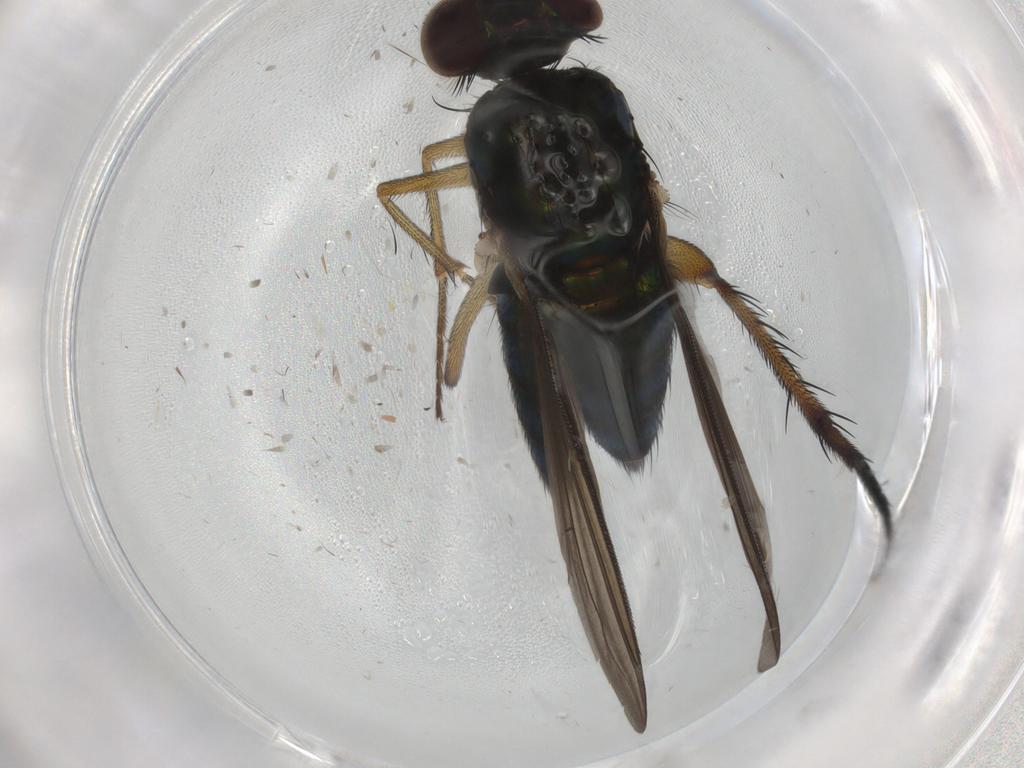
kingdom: Animalia
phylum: Arthropoda
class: Insecta
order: Diptera
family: Dolichopodidae
